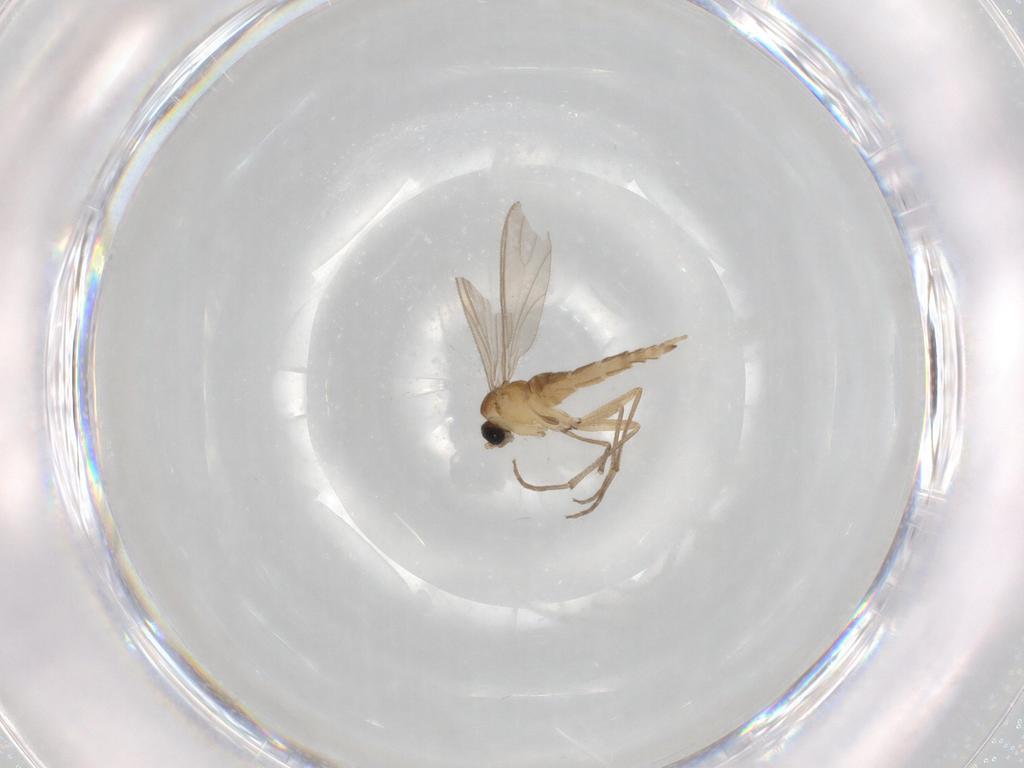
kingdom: Animalia
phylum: Arthropoda
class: Insecta
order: Diptera
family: Sciaridae
